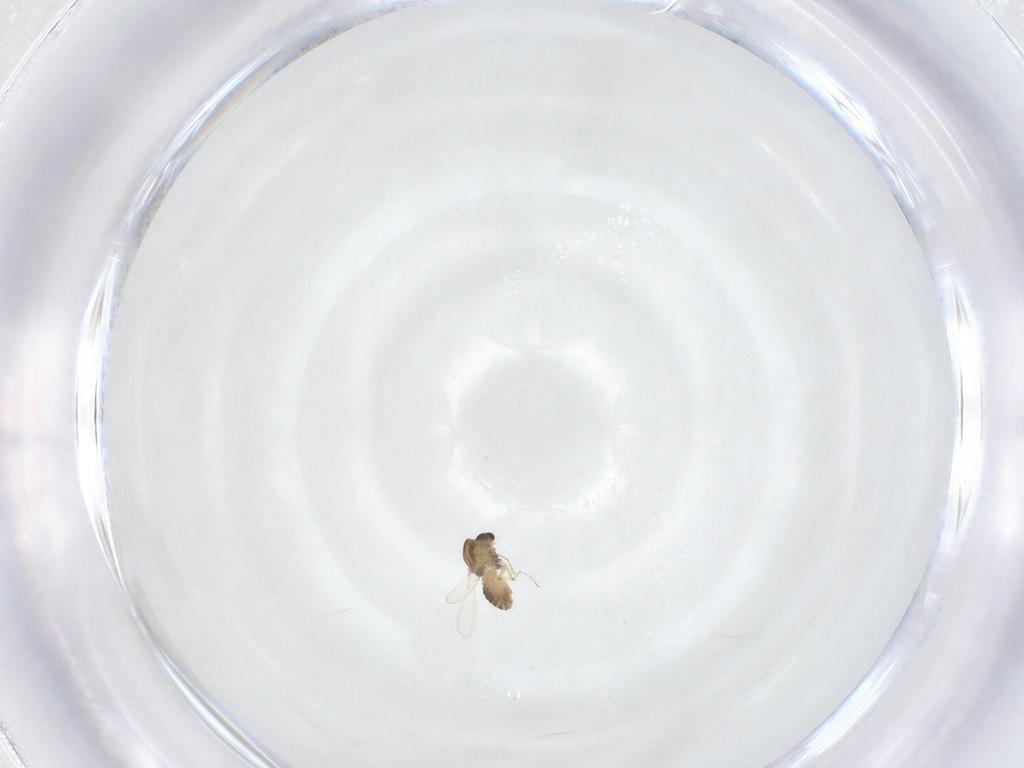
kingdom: Animalia
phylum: Arthropoda
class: Insecta
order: Diptera
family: Chironomidae
